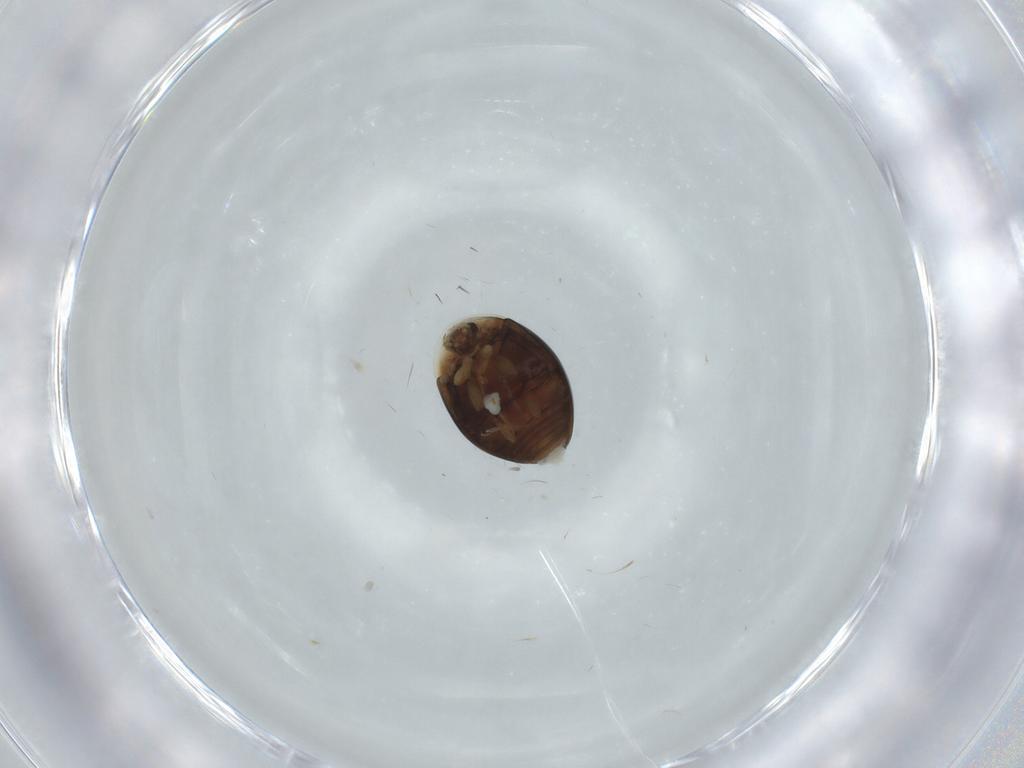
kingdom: Animalia
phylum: Arthropoda
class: Insecta
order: Coleoptera
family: Corylophidae
